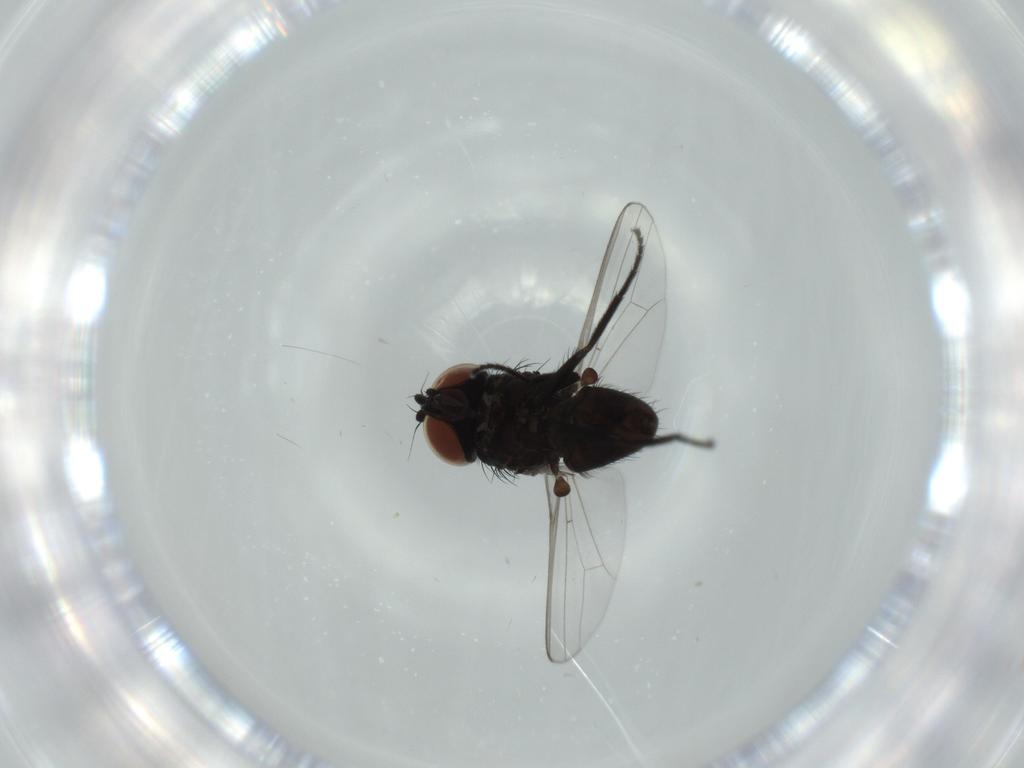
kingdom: Animalia
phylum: Arthropoda
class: Insecta
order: Diptera
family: Milichiidae
